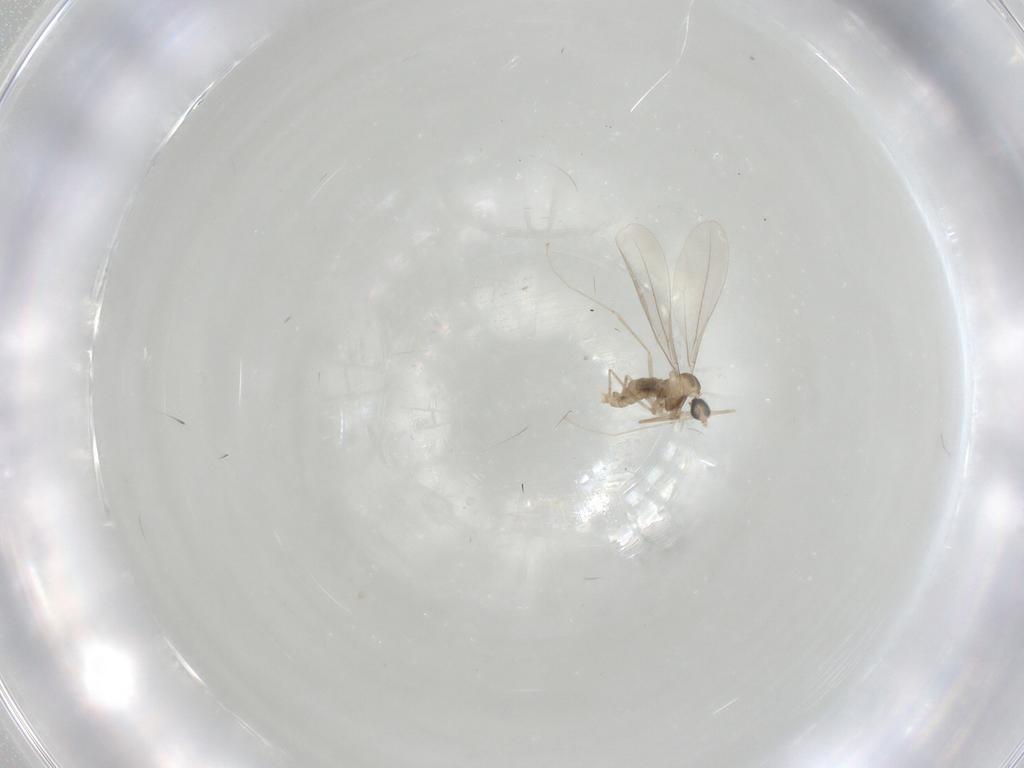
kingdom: Animalia
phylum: Arthropoda
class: Insecta
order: Diptera
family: Cecidomyiidae
